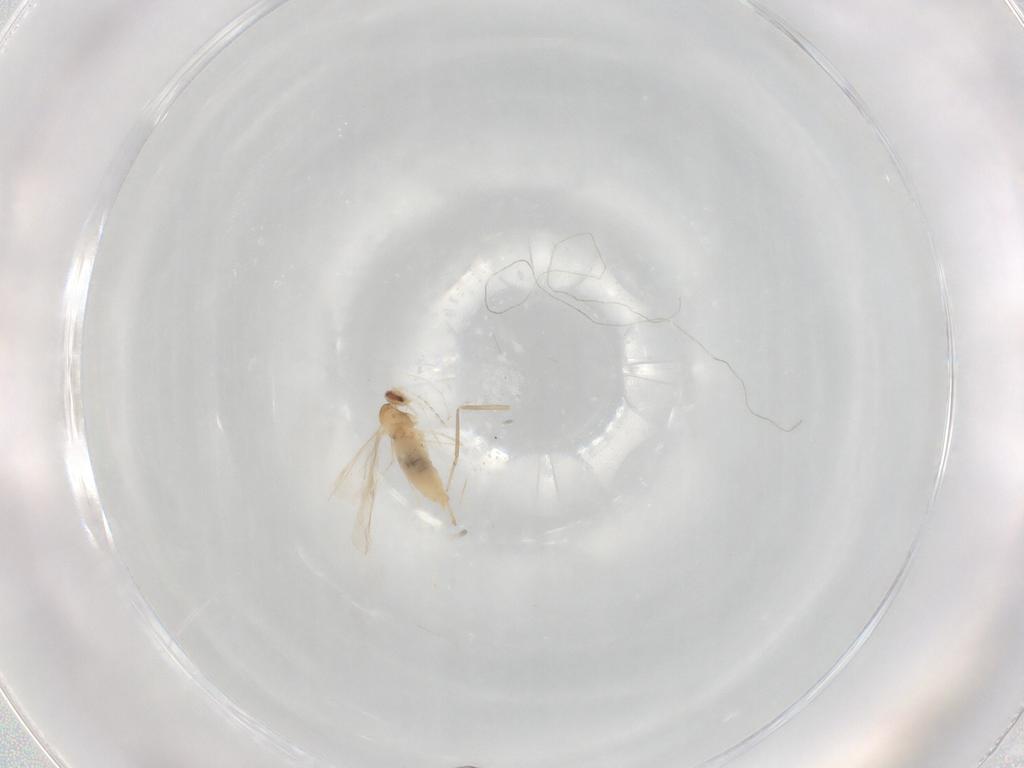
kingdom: Animalia
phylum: Arthropoda
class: Insecta
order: Diptera
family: Cecidomyiidae
